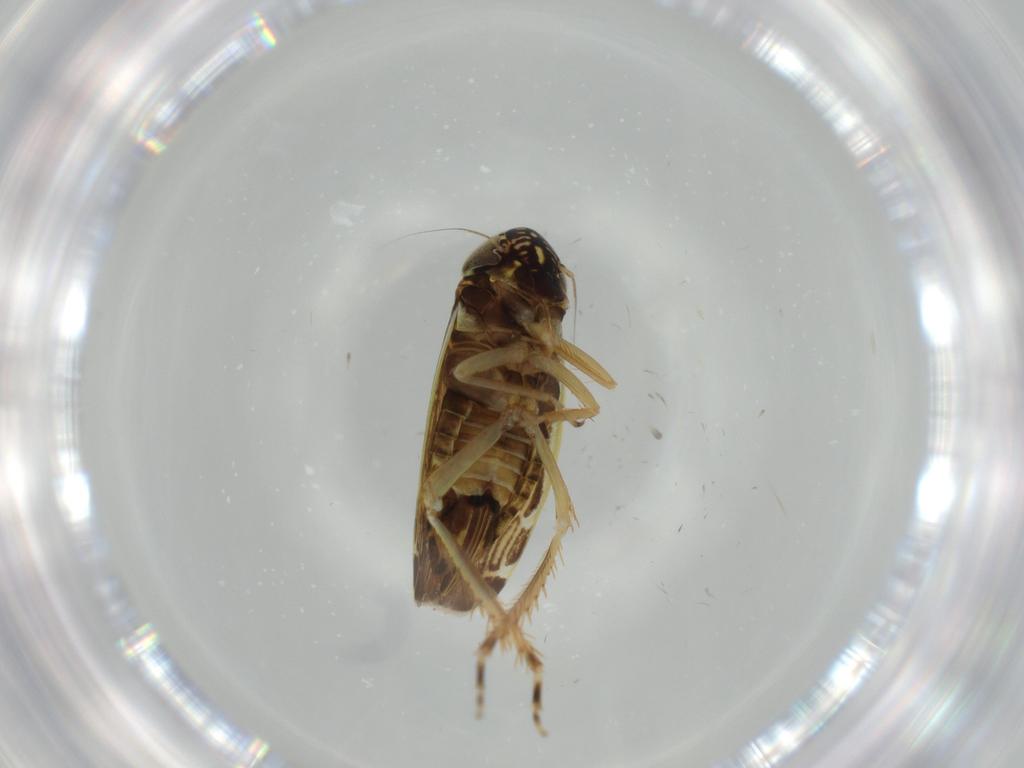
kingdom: Animalia
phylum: Arthropoda
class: Insecta
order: Hemiptera
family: Cicadellidae
